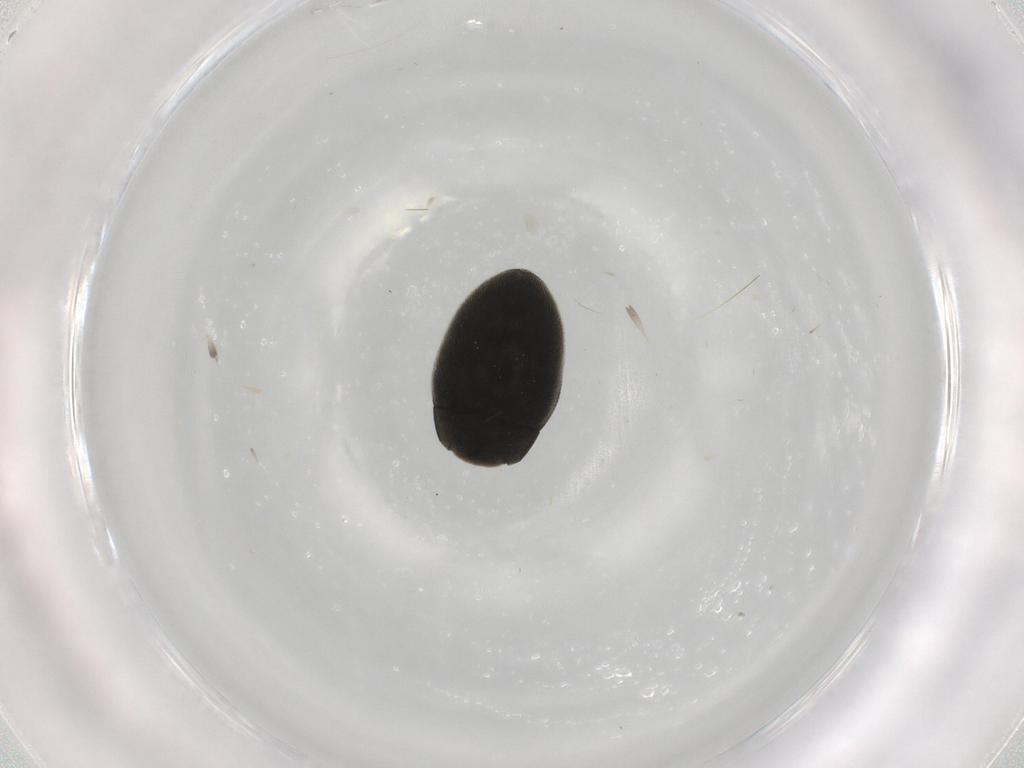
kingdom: Animalia
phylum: Arthropoda
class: Insecta
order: Coleoptera
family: Limnichidae
